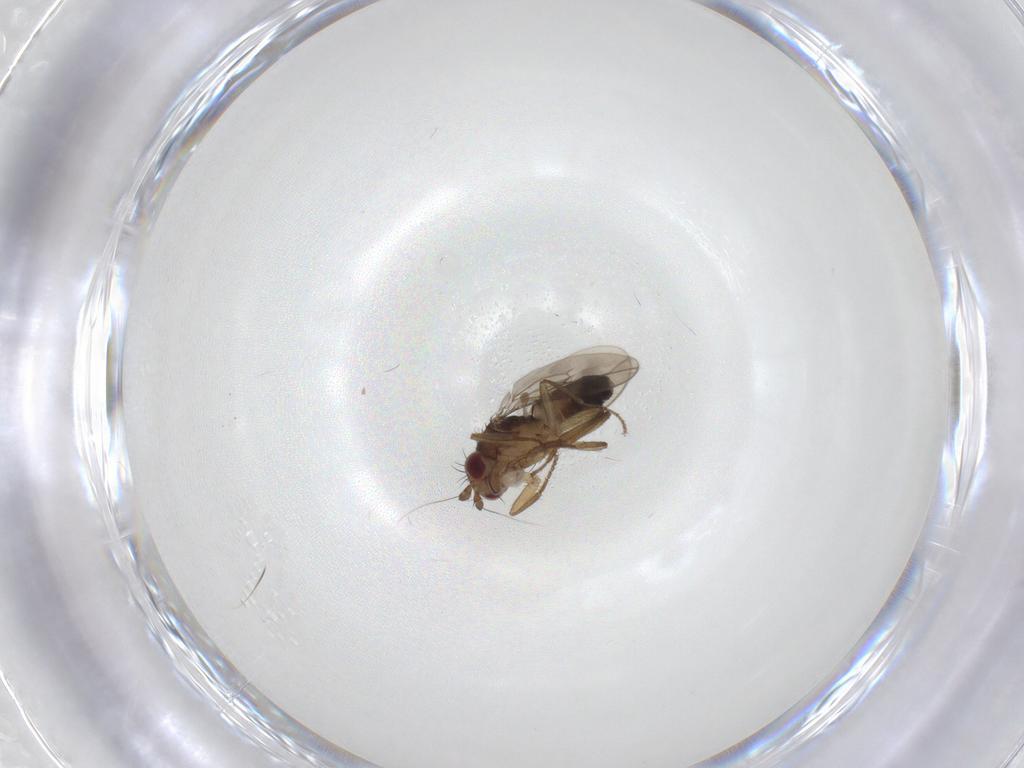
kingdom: Animalia
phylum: Arthropoda
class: Insecta
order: Diptera
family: Sphaeroceridae
